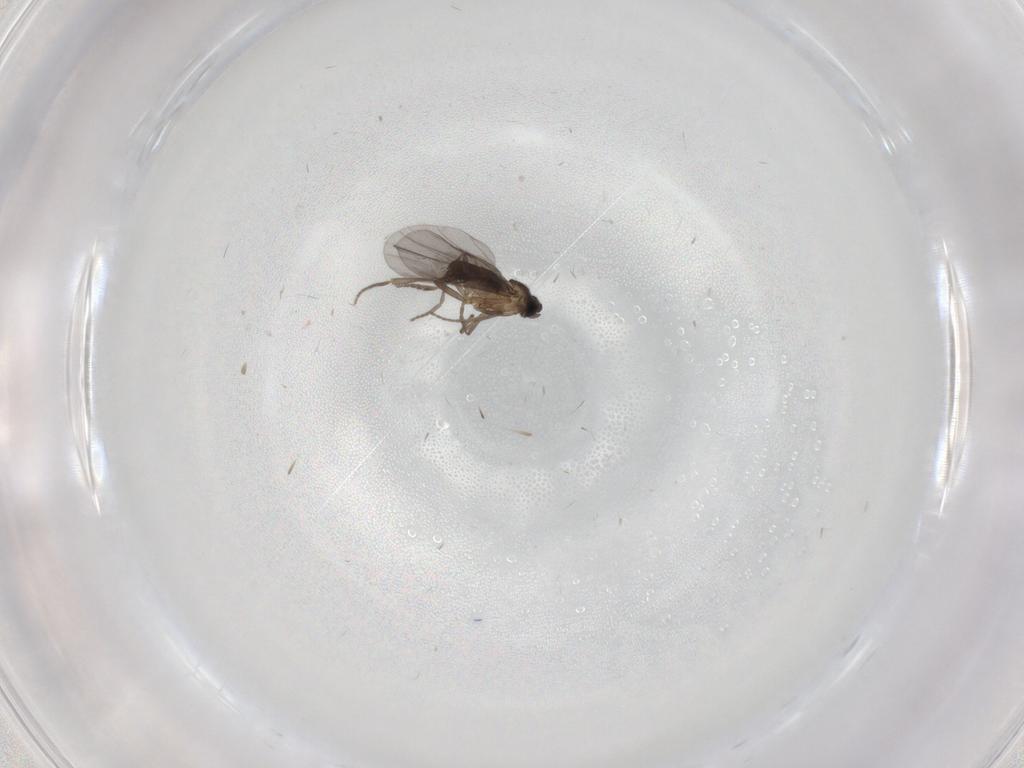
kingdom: Animalia
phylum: Arthropoda
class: Insecta
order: Diptera
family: Phoridae
